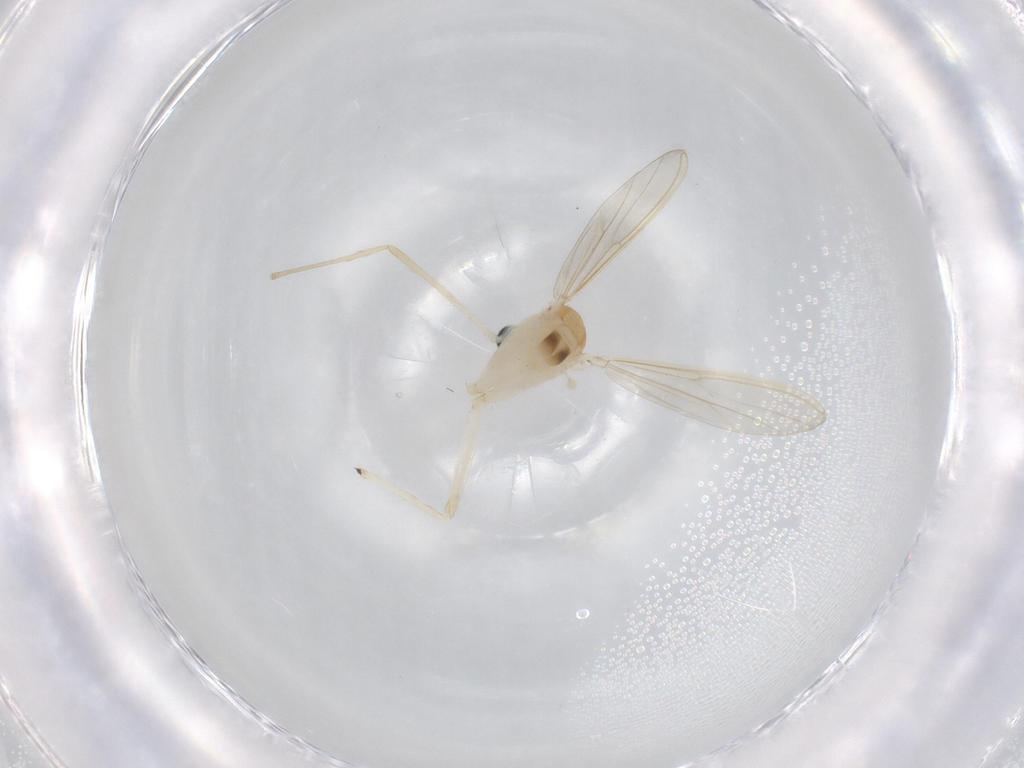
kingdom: Animalia
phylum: Arthropoda
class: Insecta
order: Diptera
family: Chironomidae
